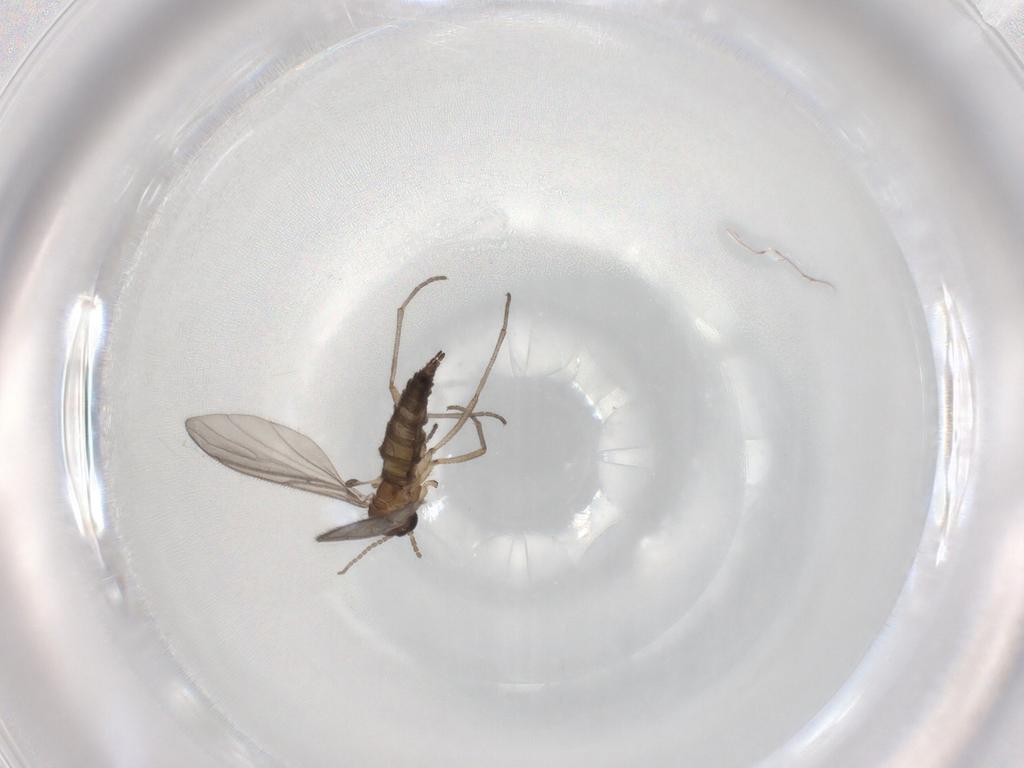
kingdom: Animalia
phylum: Arthropoda
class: Insecta
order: Diptera
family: Sciaridae
